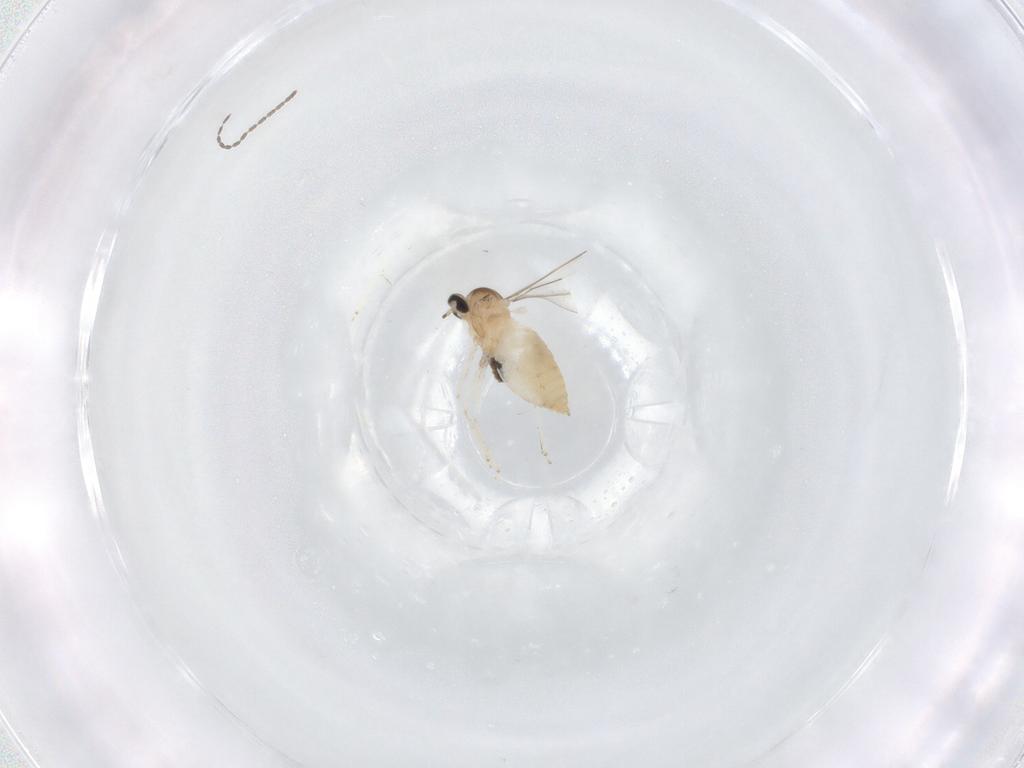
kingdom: Animalia
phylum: Arthropoda
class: Insecta
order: Diptera
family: Cecidomyiidae
